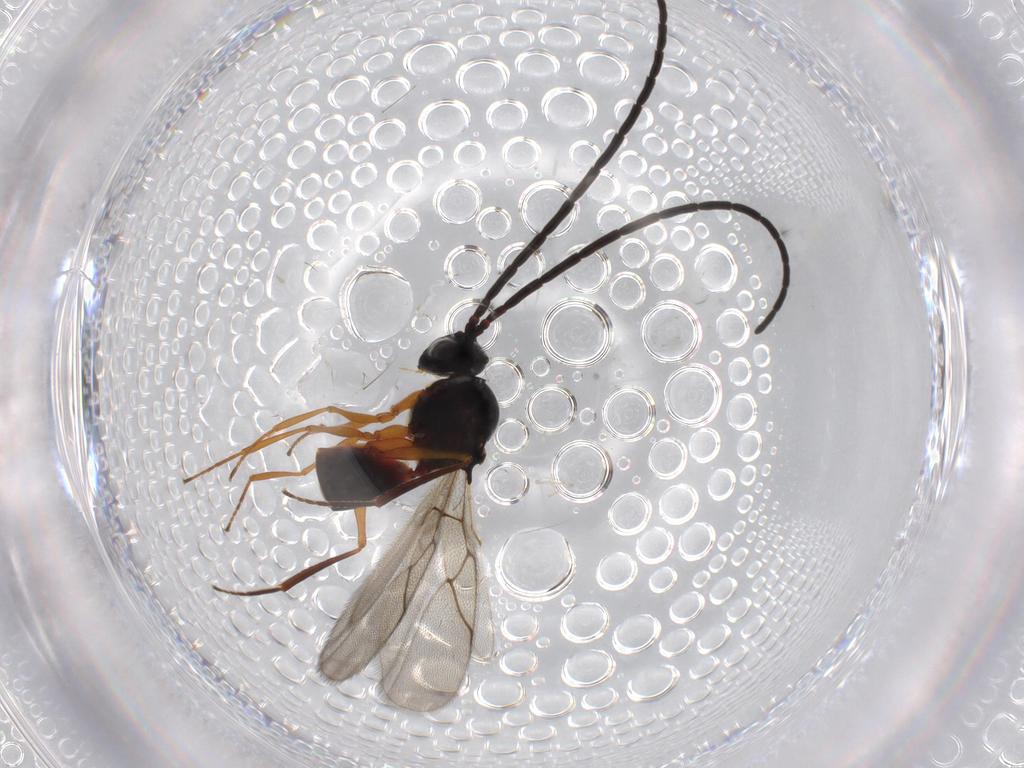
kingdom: Animalia
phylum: Arthropoda
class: Insecta
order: Hymenoptera
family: Figitidae
